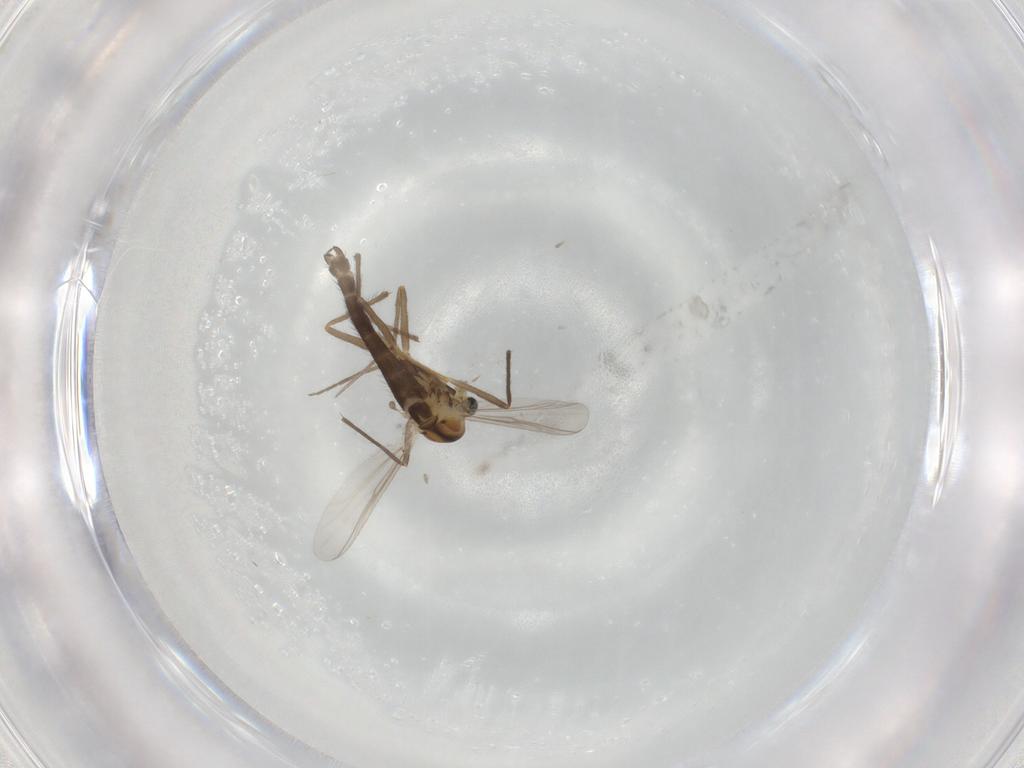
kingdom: Animalia
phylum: Arthropoda
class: Insecta
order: Diptera
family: Chironomidae
